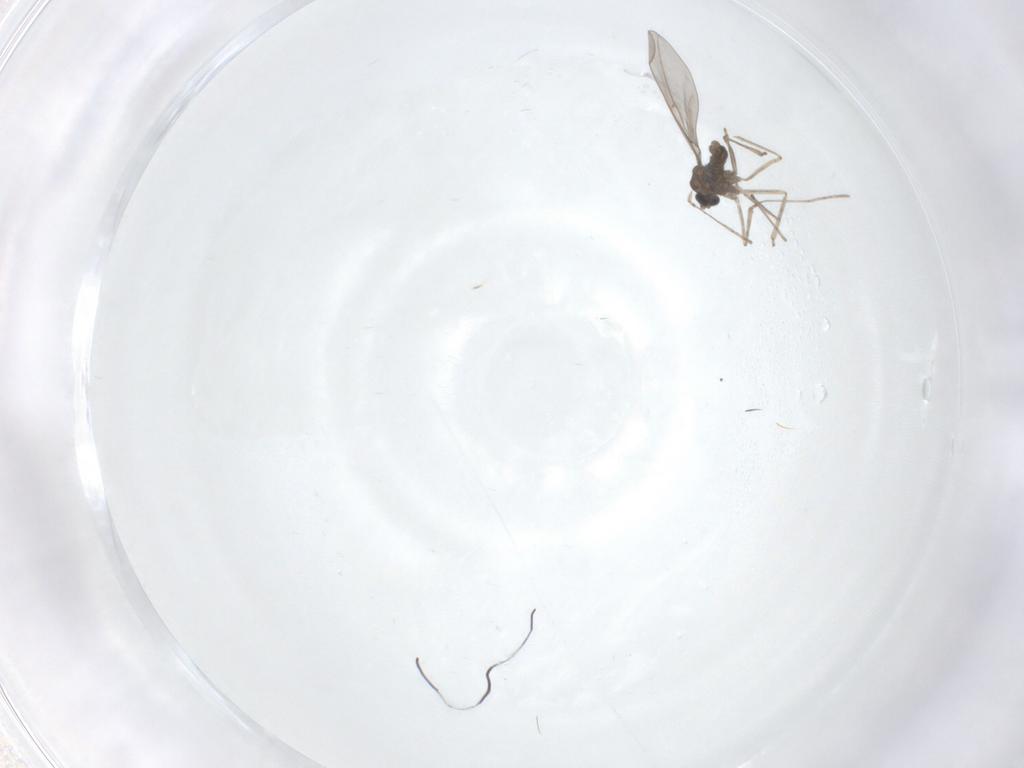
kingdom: Animalia
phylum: Arthropoda
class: Insecta
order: Diptera
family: Cecidomyiidae
